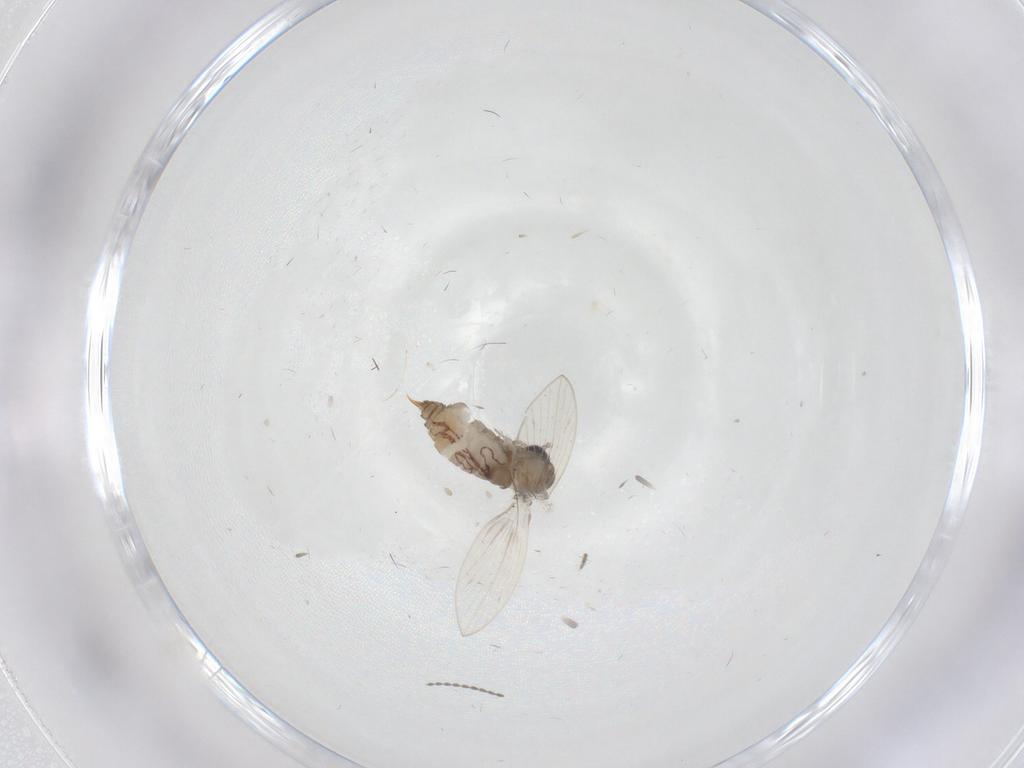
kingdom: Animalia
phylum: Arthropoda
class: Insecta
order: Diptera
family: Psychodidae
